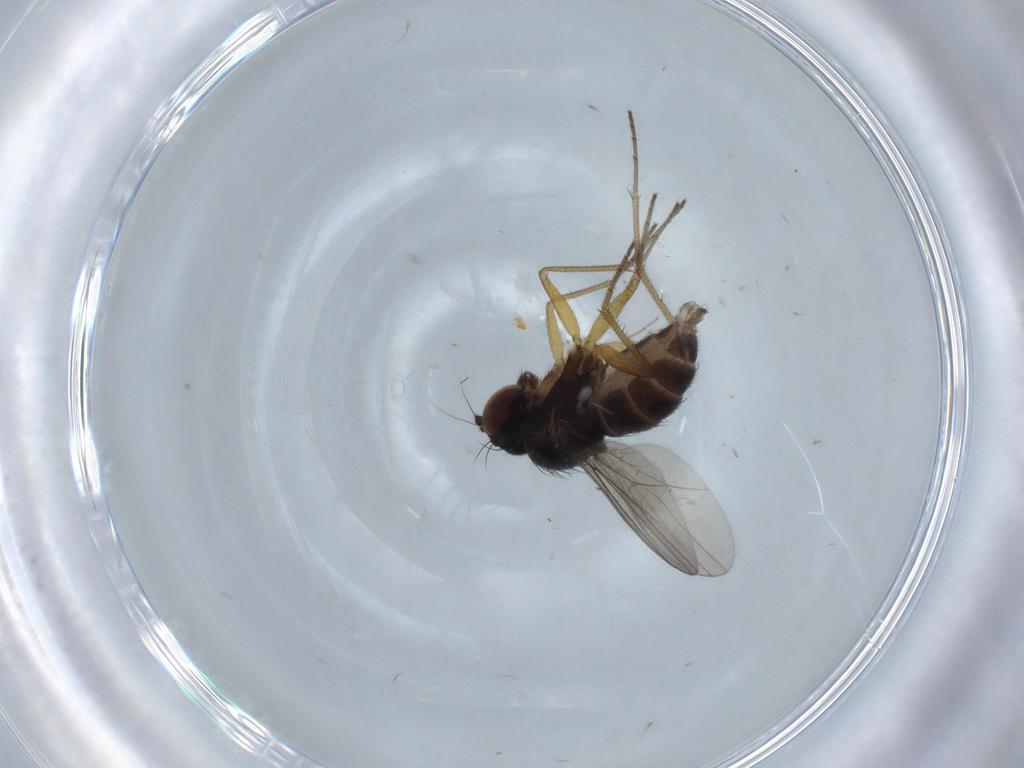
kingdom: Animalia
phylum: Arthropoda
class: Insecta
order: Diptera
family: Dolichopodidae
